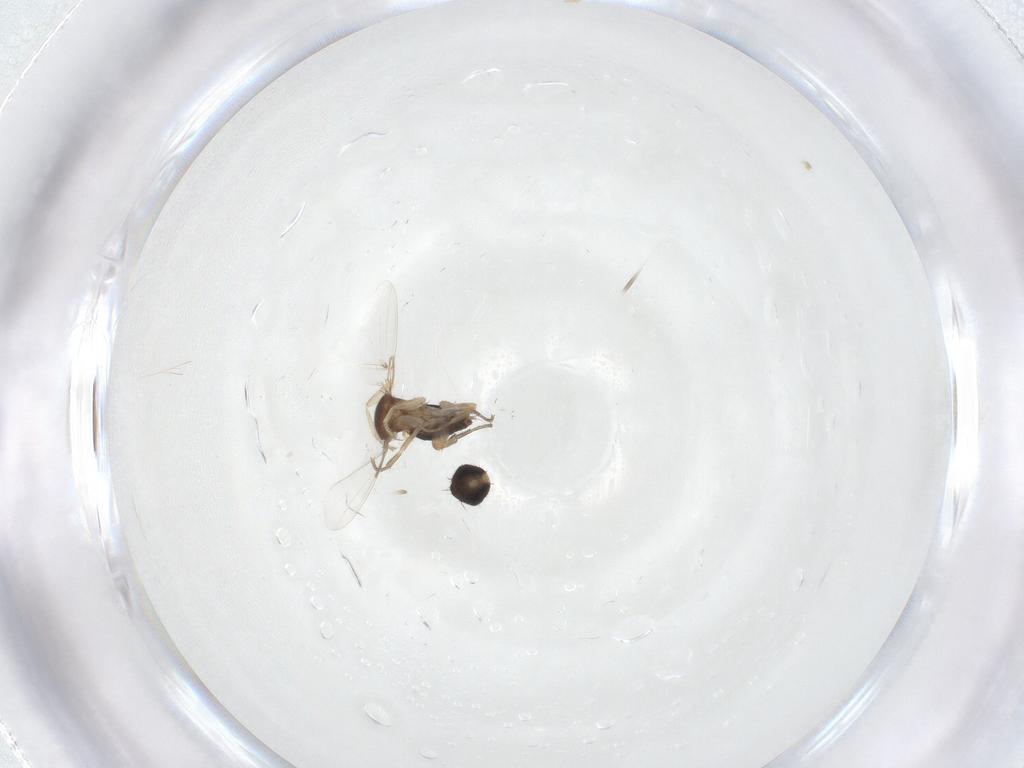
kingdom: Animalia
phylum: Arthropoda
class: Insecta
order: Diptera
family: Phoridae
